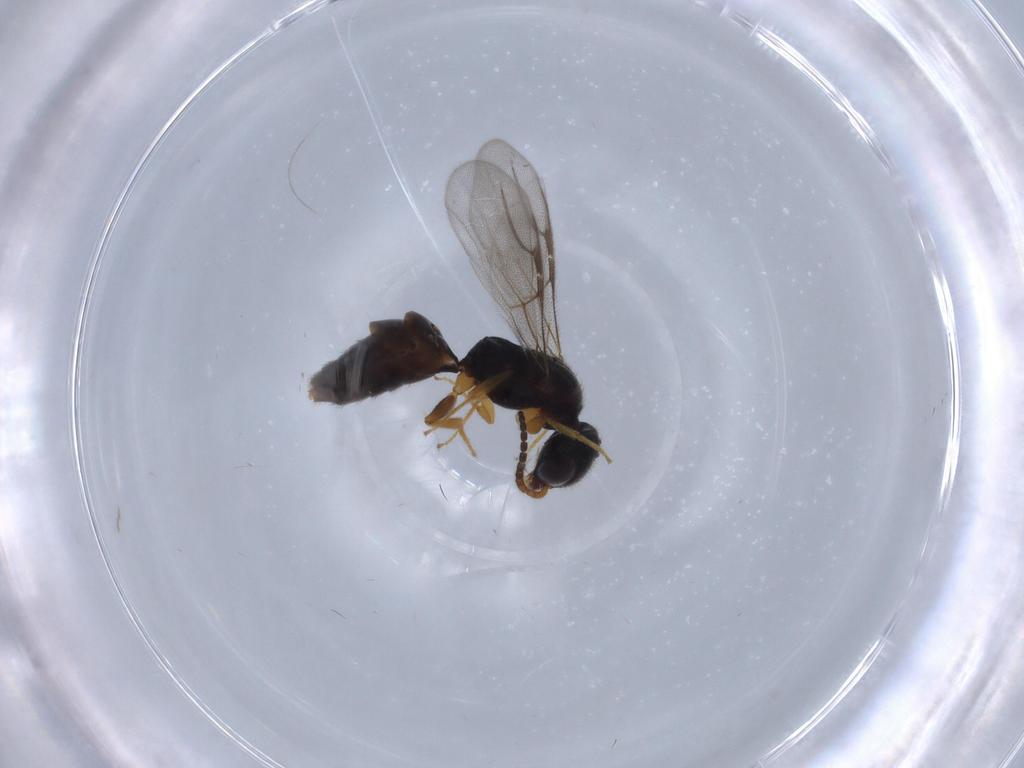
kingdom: Animalia
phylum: Arthropoda
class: Insecta
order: Hymenoptera
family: Bethylidae
